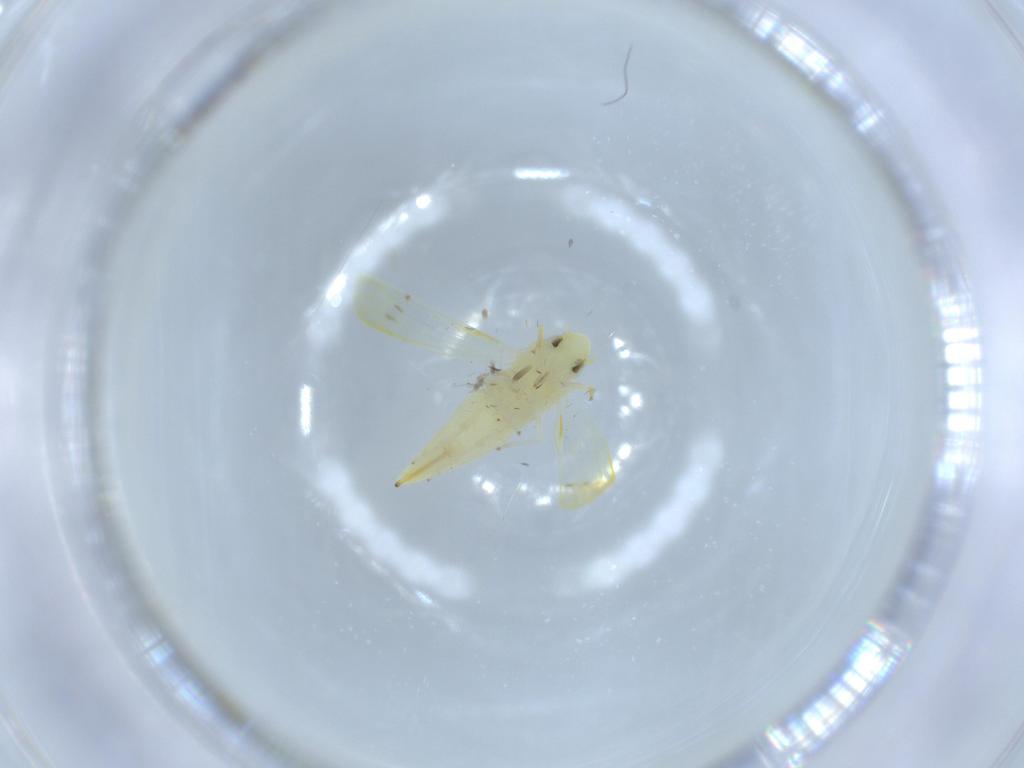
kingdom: Animalia
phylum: Arthropoda
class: Insecta
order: Hemiptera
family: Cicadellidae
